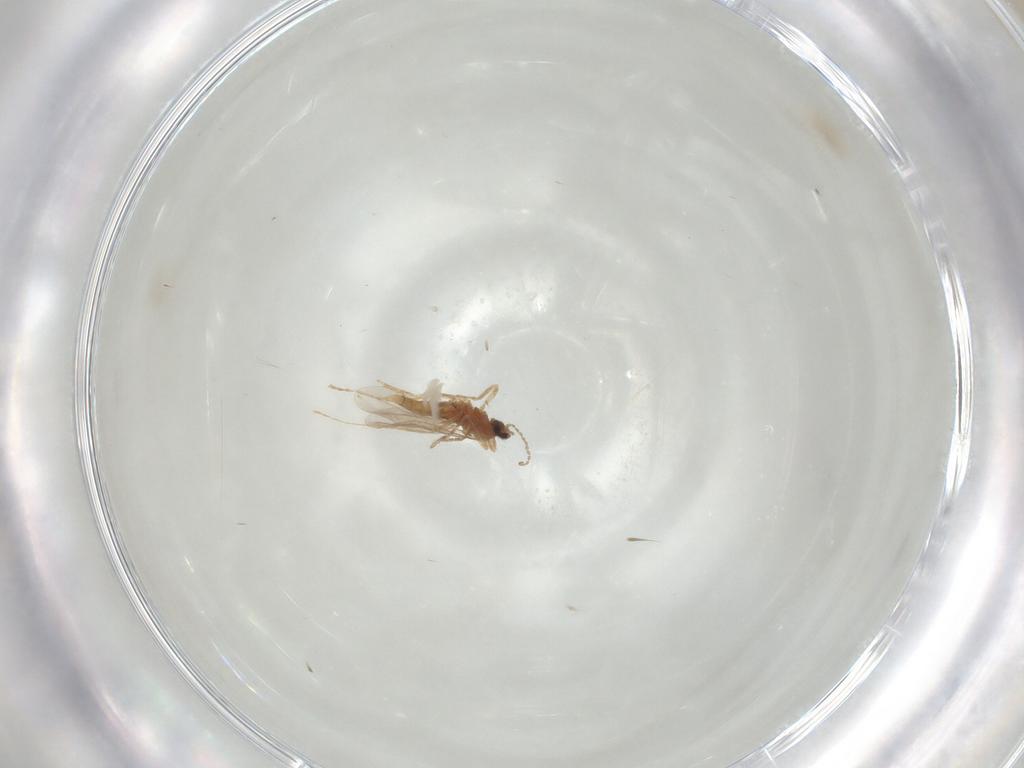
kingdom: Animalia
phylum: Arthropoda
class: Insecta
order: Diptera
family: Cecidomyiidae
